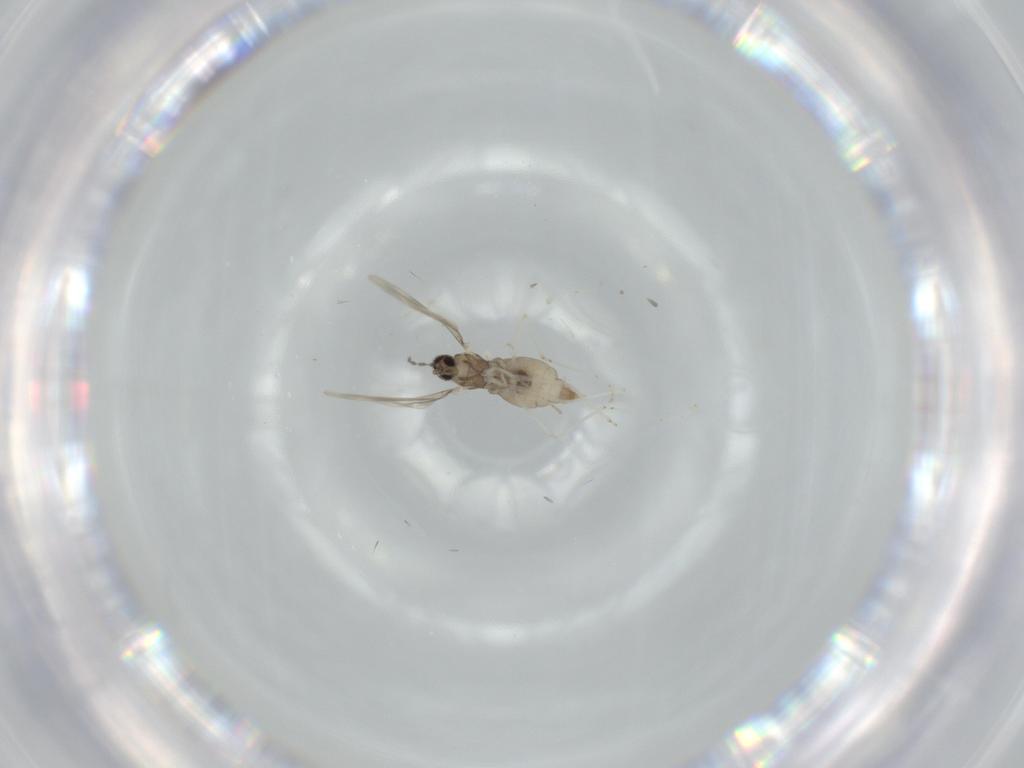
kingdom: Animalia
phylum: Arthropoda
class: Insecta
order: Diptera
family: Cecidomyiidae
